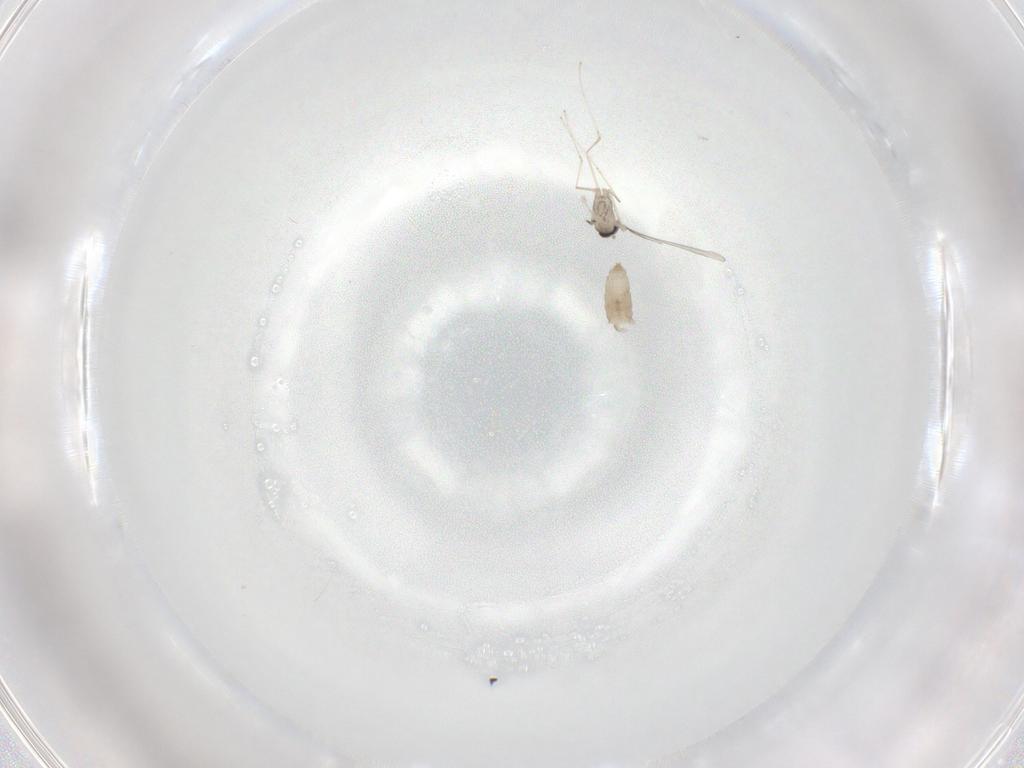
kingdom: Animalia
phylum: Arthropoda
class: Insecta
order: Diptera
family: Cecidomyiidae
